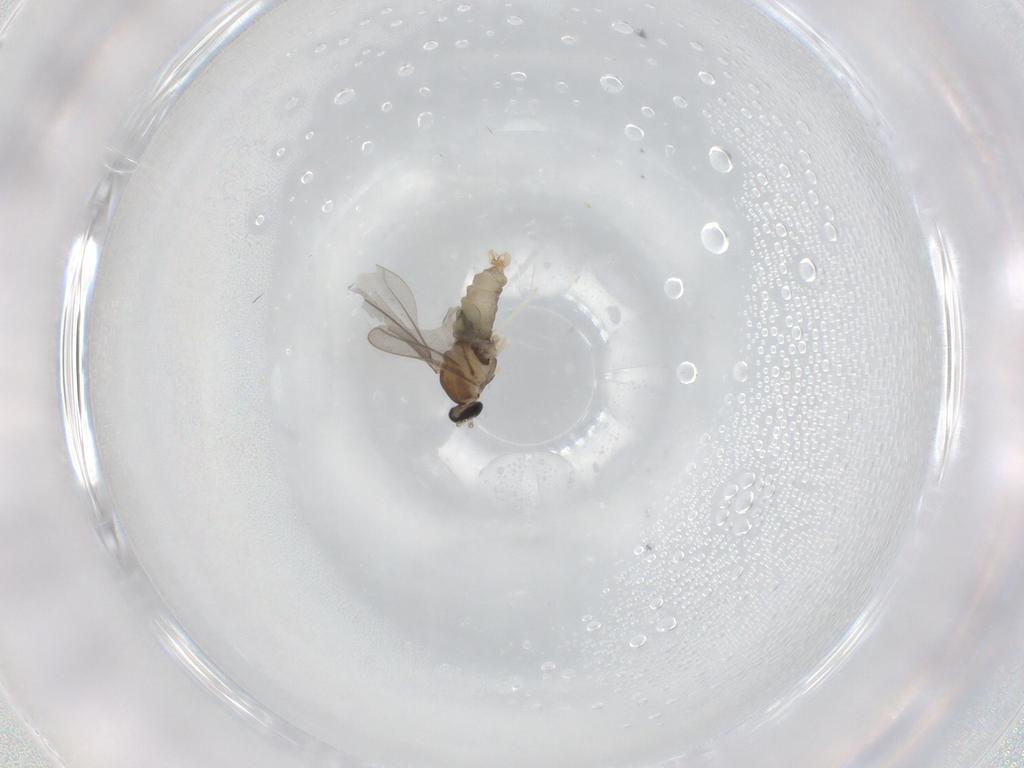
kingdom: Animalia
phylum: Arthropoda
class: Insecta
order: Diptera
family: Cecidomyiidae
